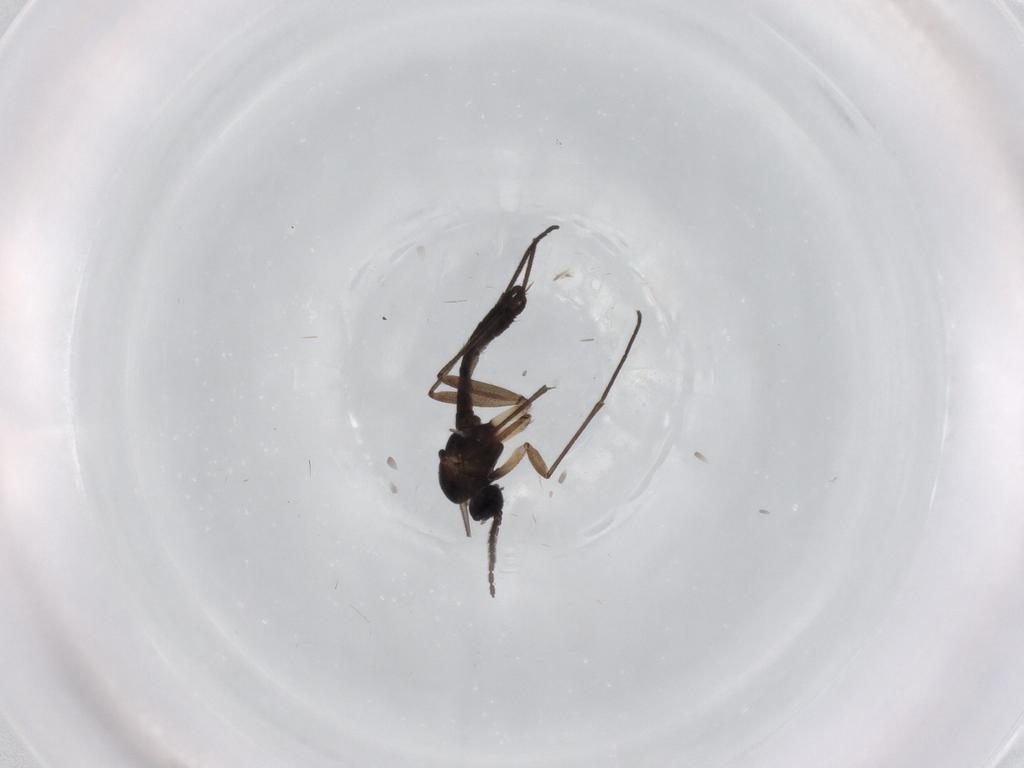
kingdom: Animalia
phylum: Arthropoda
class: Insecta
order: Diptera
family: Sciaridae
